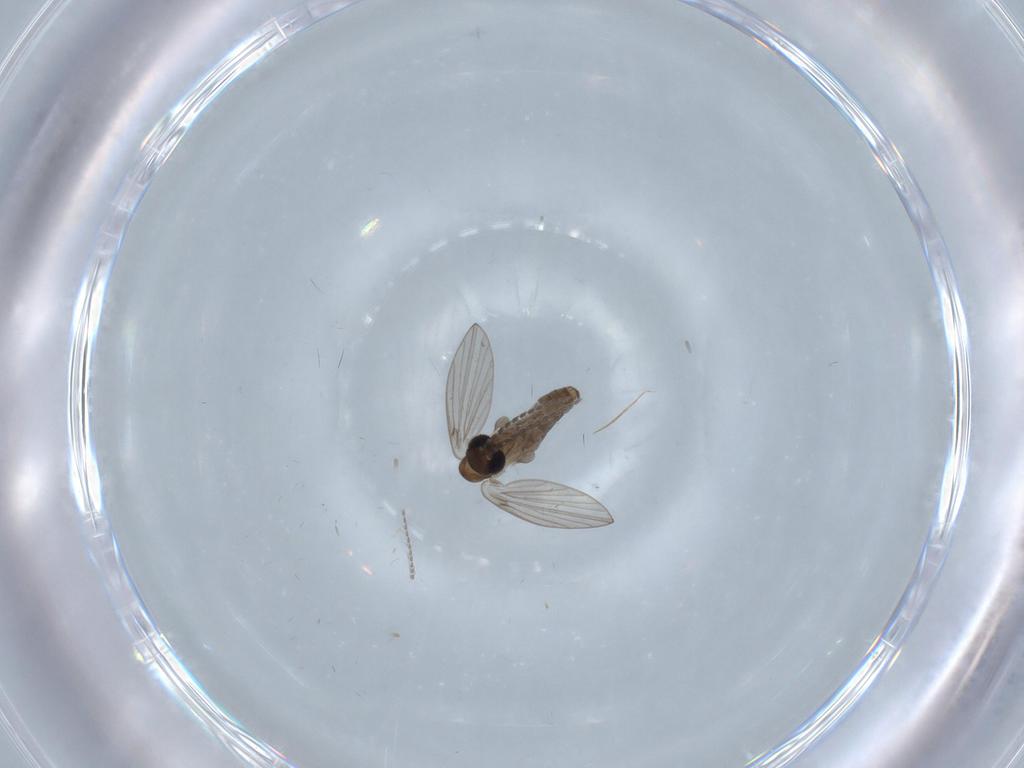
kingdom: Animalia
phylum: Arthropoda
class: Insecta
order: Diptera
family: Psychodidae
